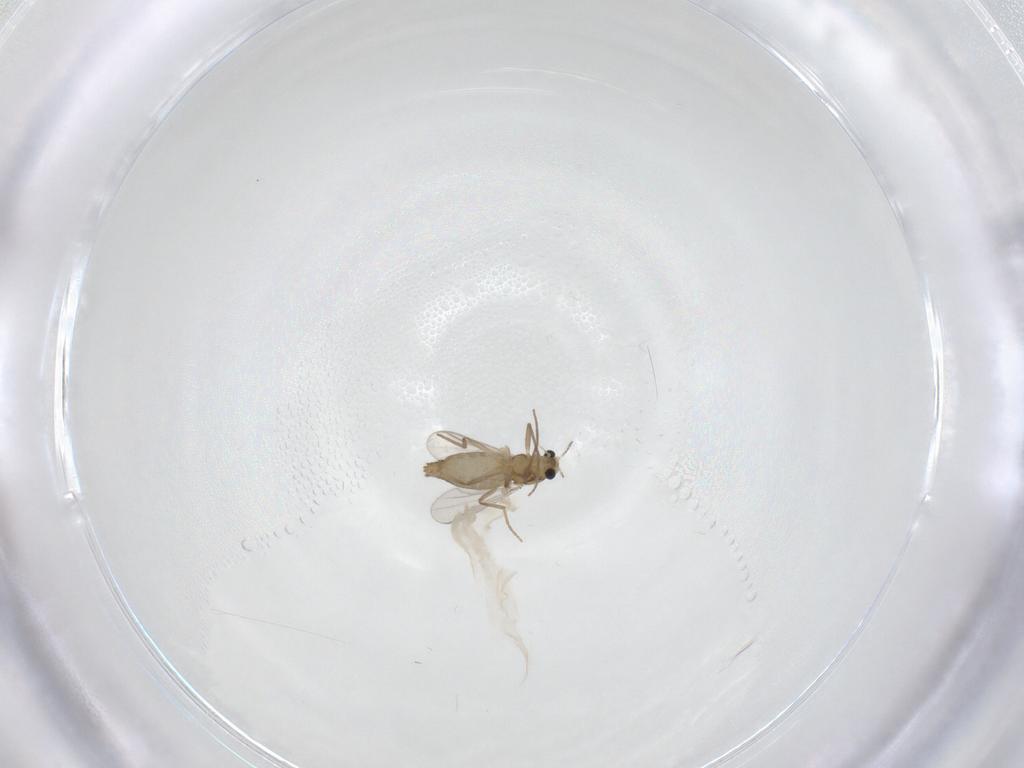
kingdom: Animalia
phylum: Arthropoda
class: Insecta
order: Diptera
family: Chironomidae
